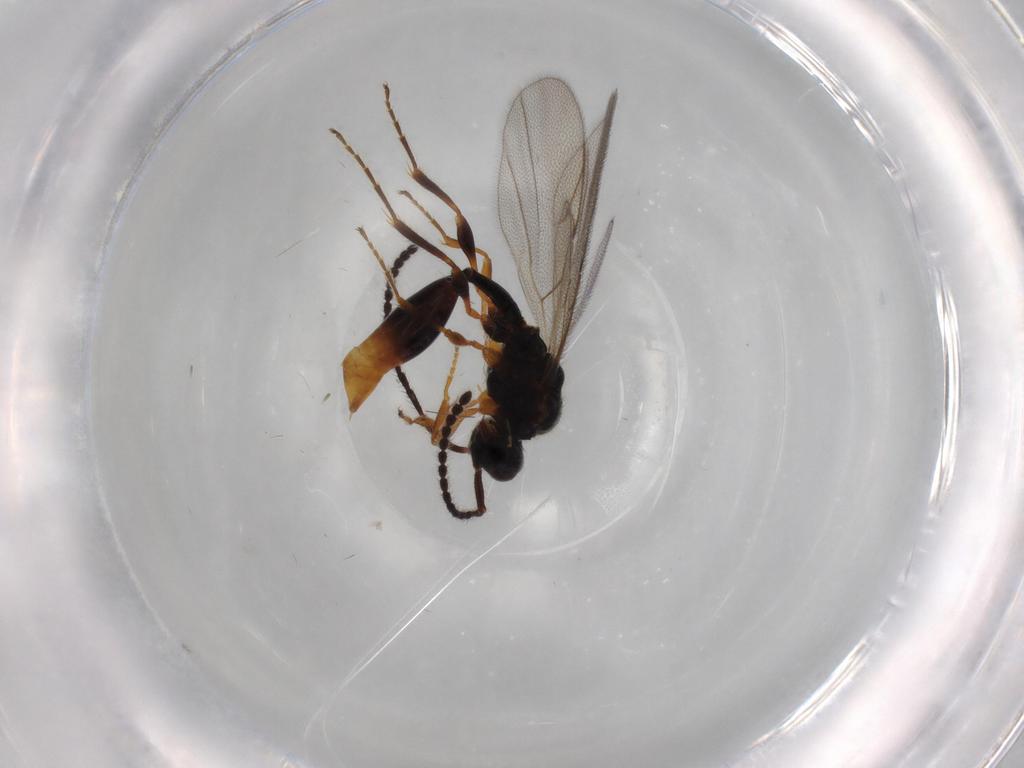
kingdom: Animalia
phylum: Arthropoda
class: Insecta
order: Hymenoptera
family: Diapriidae
